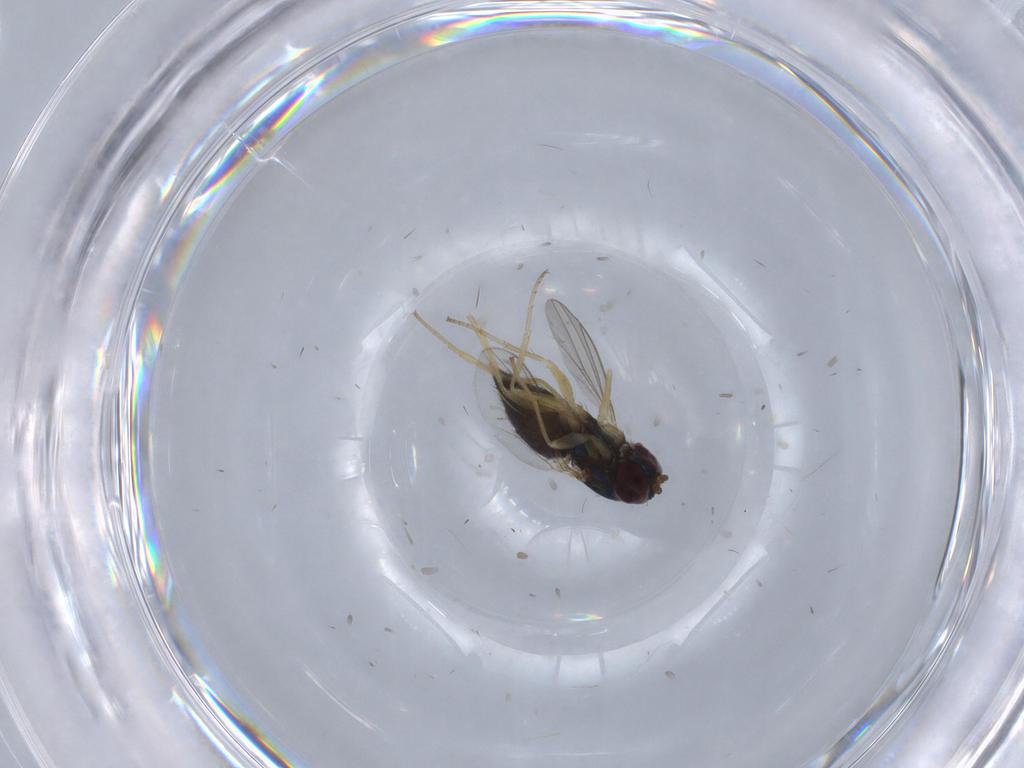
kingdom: Animalia
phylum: Arthropoda
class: Insecta
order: Diptera
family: Dolichopodidae
